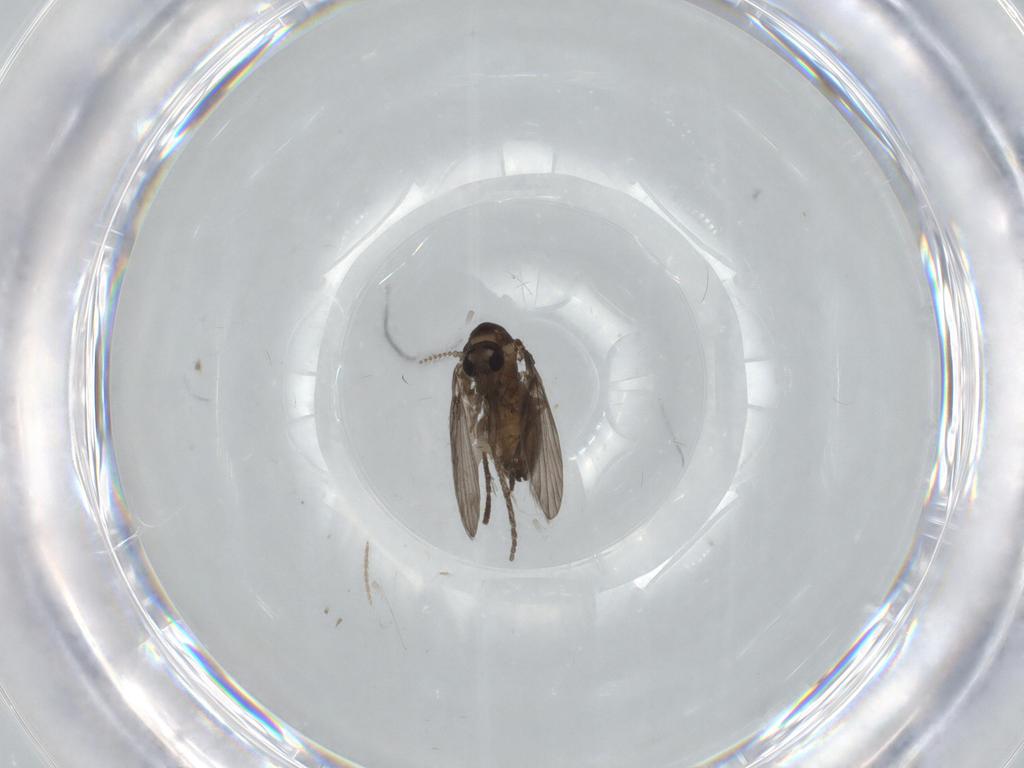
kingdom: Animalia
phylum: Arthropoda
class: Insecta
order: Diptera
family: Psychodidae
